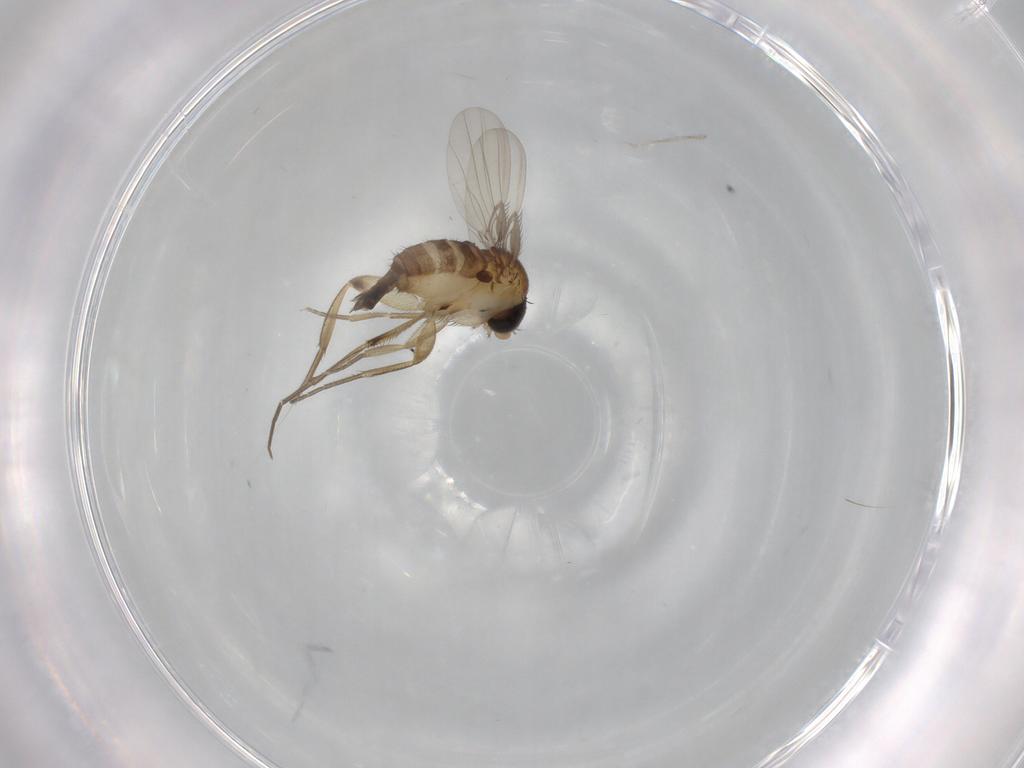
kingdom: Animalia
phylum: Arthropoda
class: Insecta
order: Diptera
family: Phoridae
